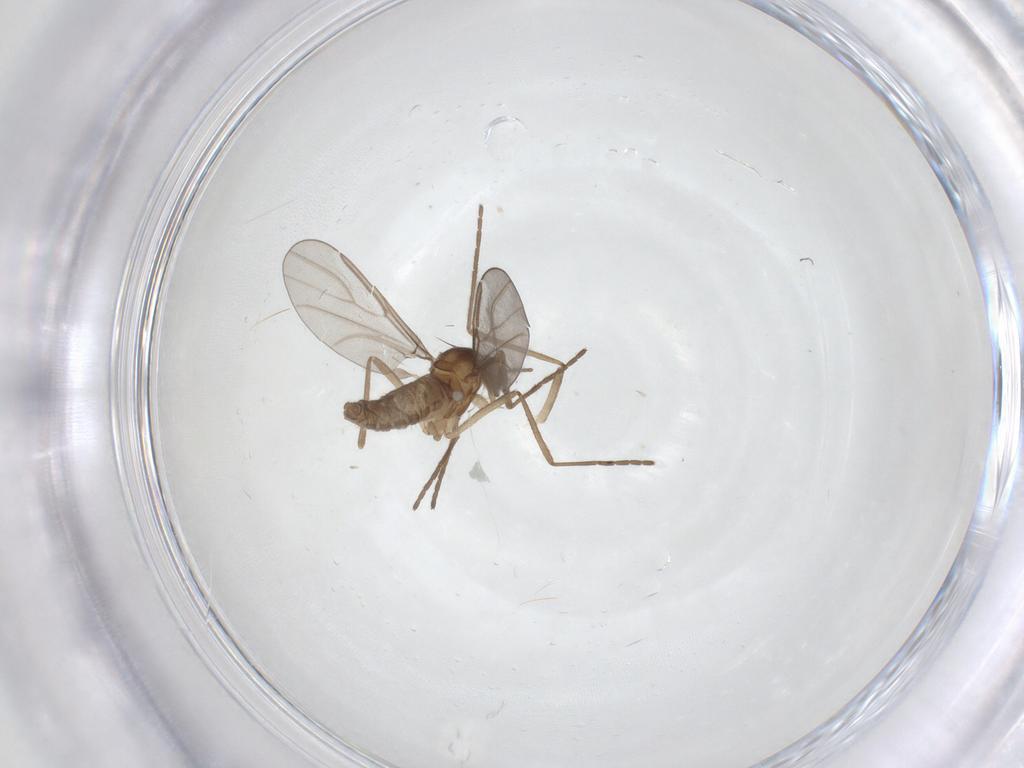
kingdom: Animalia
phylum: Arthropoda
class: Insecta
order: Diptera
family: Cecidomyiidae
